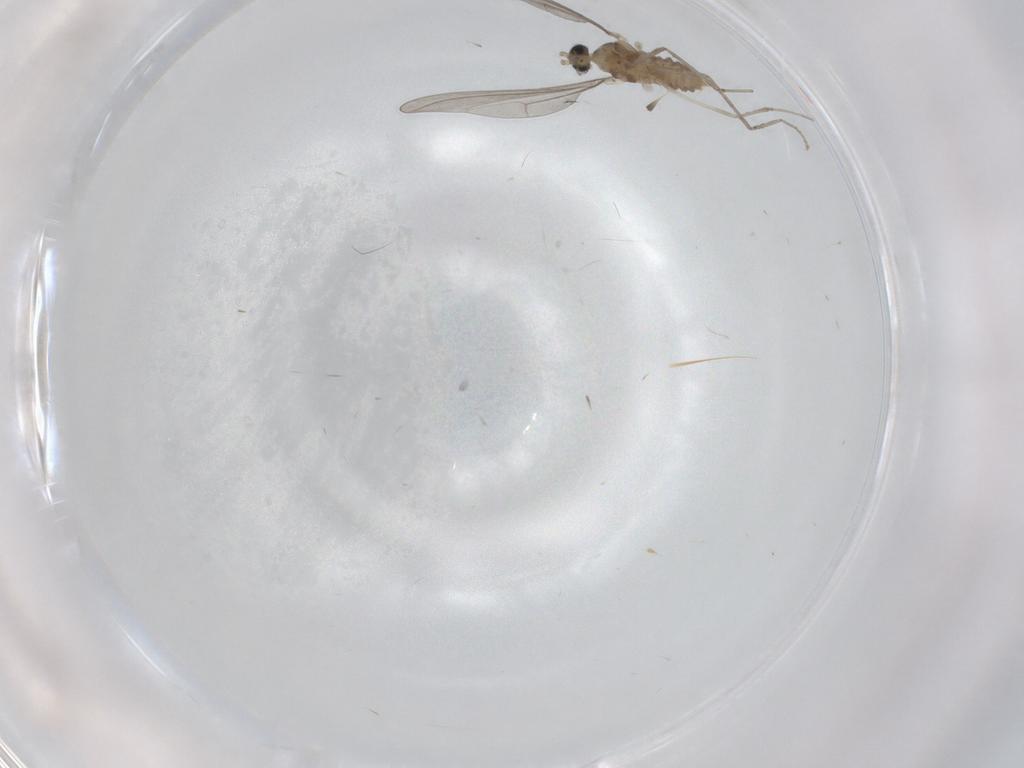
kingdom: Animalia
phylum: Arthropoda
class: Insecta
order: Diptera
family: Cecidomyiidae
